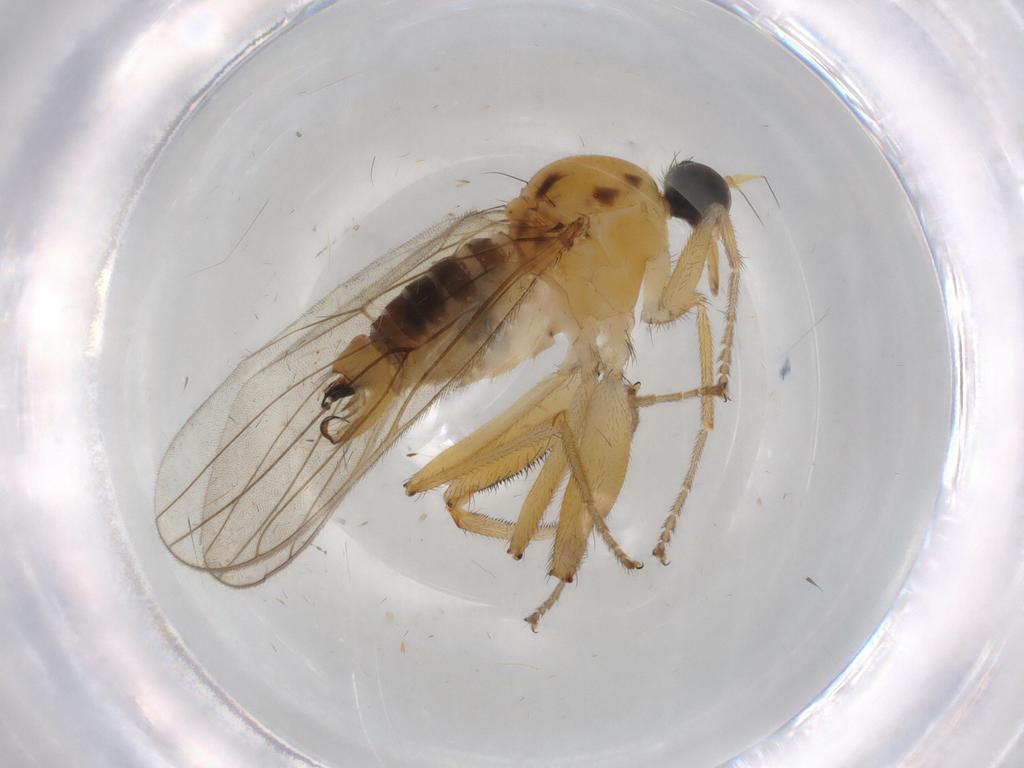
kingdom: Animalia
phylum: Arthropoda
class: Insecta
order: Diptera
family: Hybotidae
